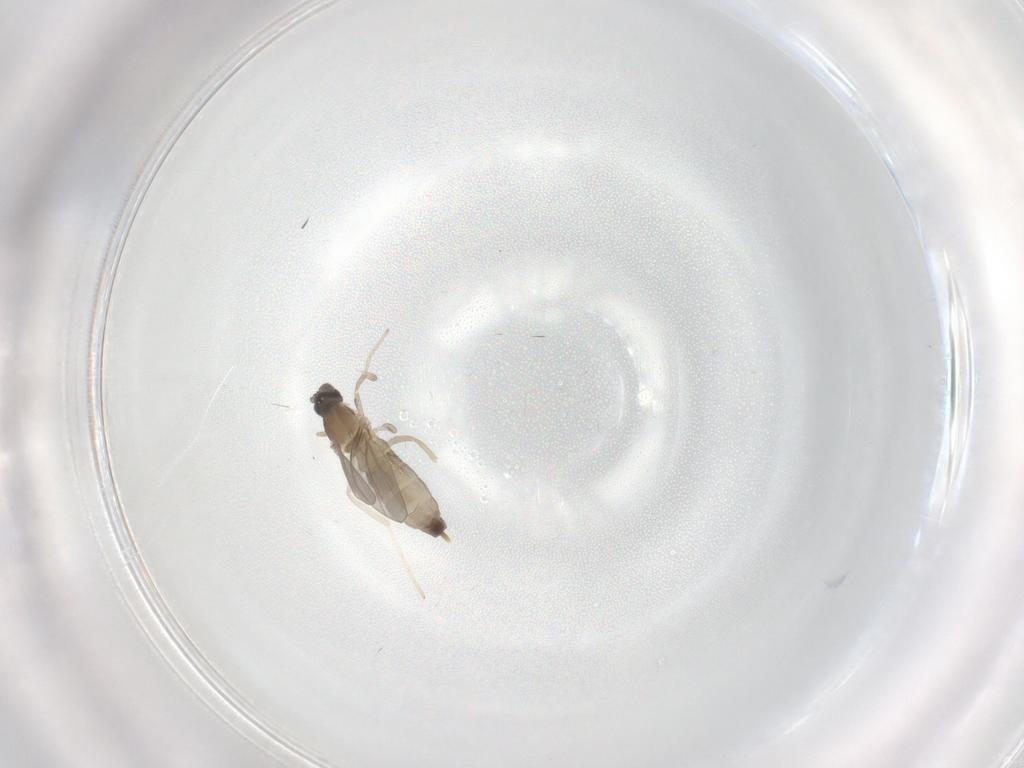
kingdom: Animalia
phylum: Arthropoda
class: Insecta
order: Diptera
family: Cecidomyiidae
